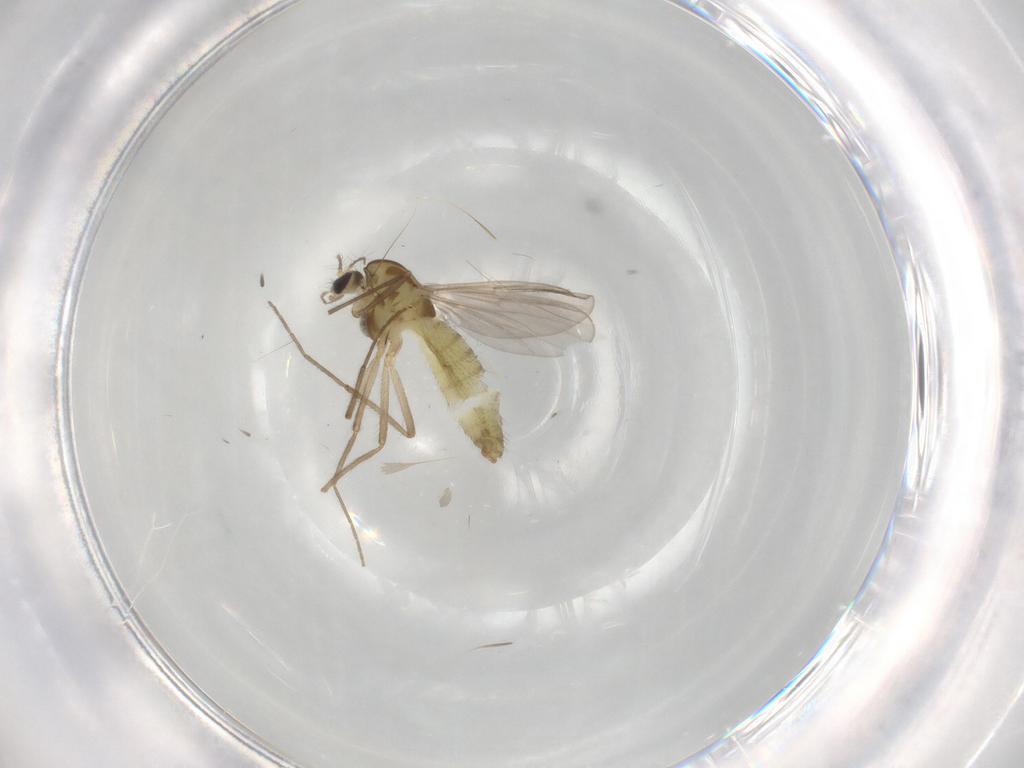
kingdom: Animalia
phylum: Arthropoda
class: Insecta
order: Diptera
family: Chironomidae
